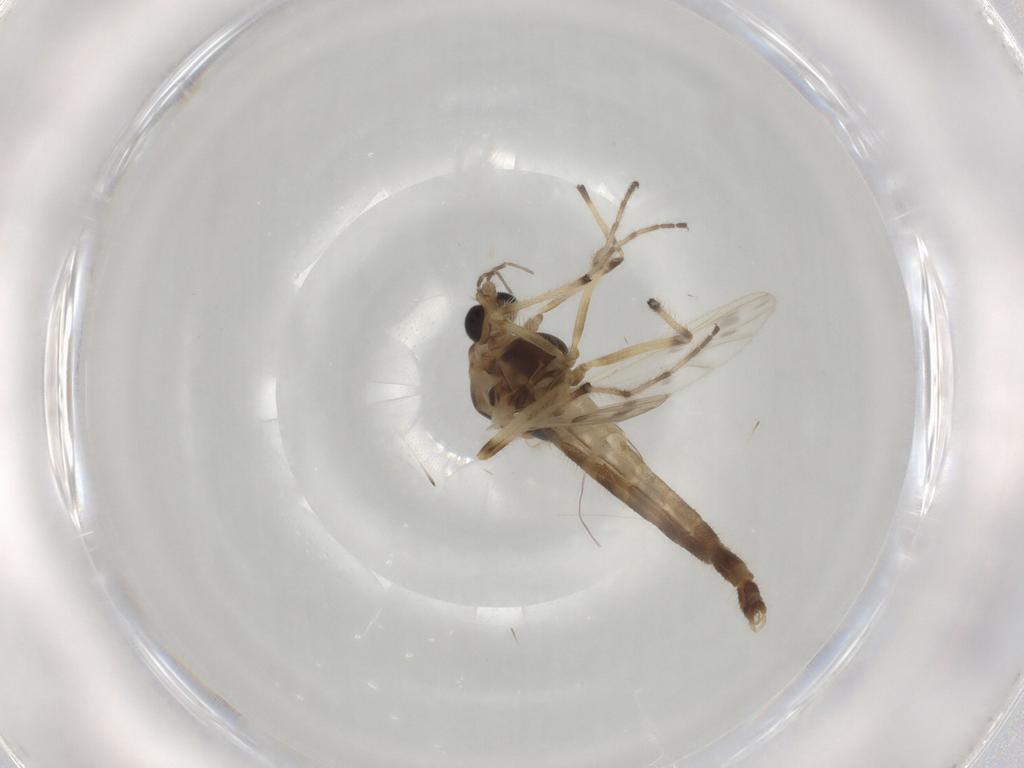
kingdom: Animalia
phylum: Arthropoda
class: Insecta
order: Diptera
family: Chironomidae
